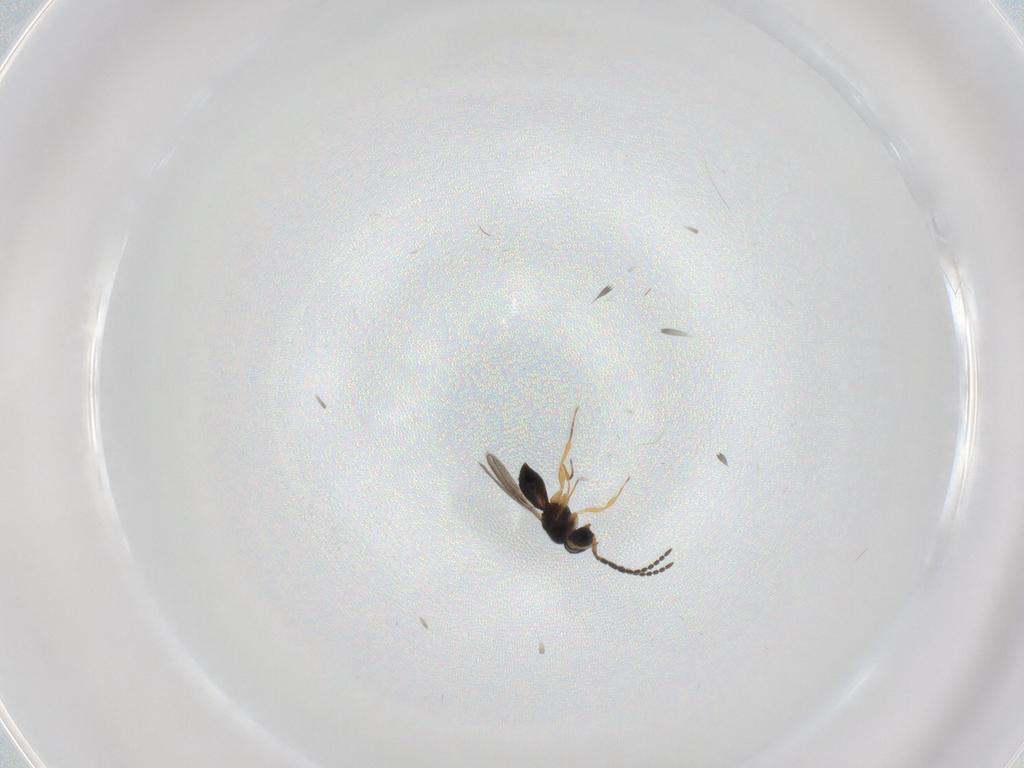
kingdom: Animalia
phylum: Arthropoda
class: Insecta
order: Hymenoptera
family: Scelionidae
